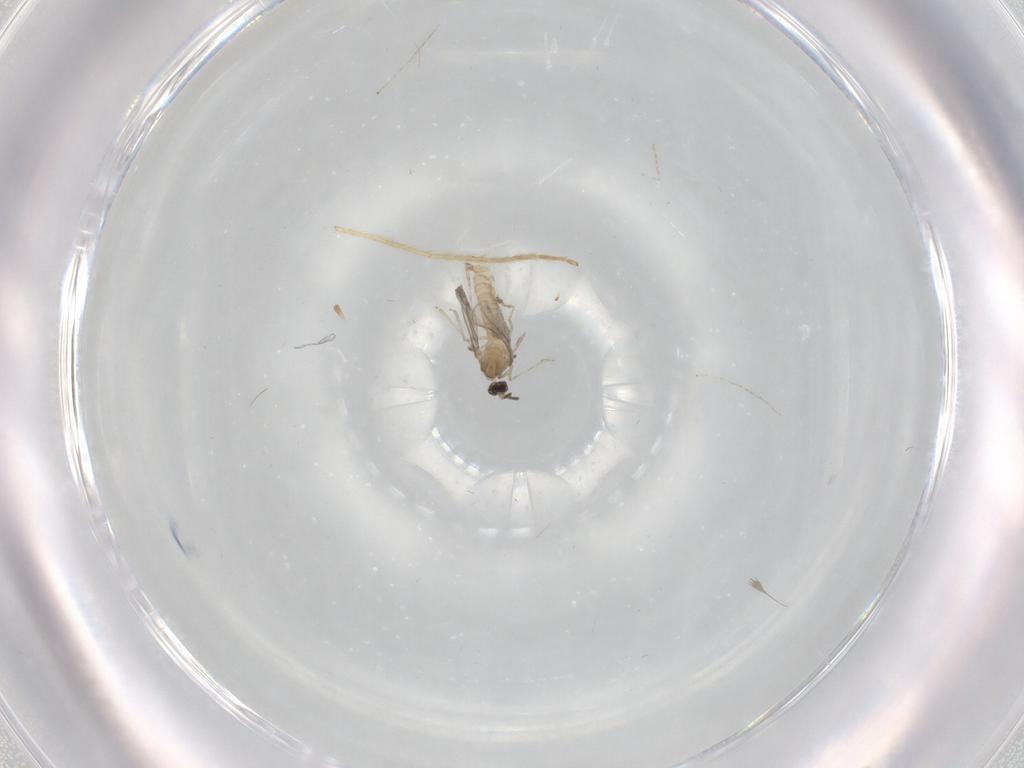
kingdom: Animalia
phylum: Arthropoda
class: Insecta
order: Diptera
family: Cecidomyiidae
